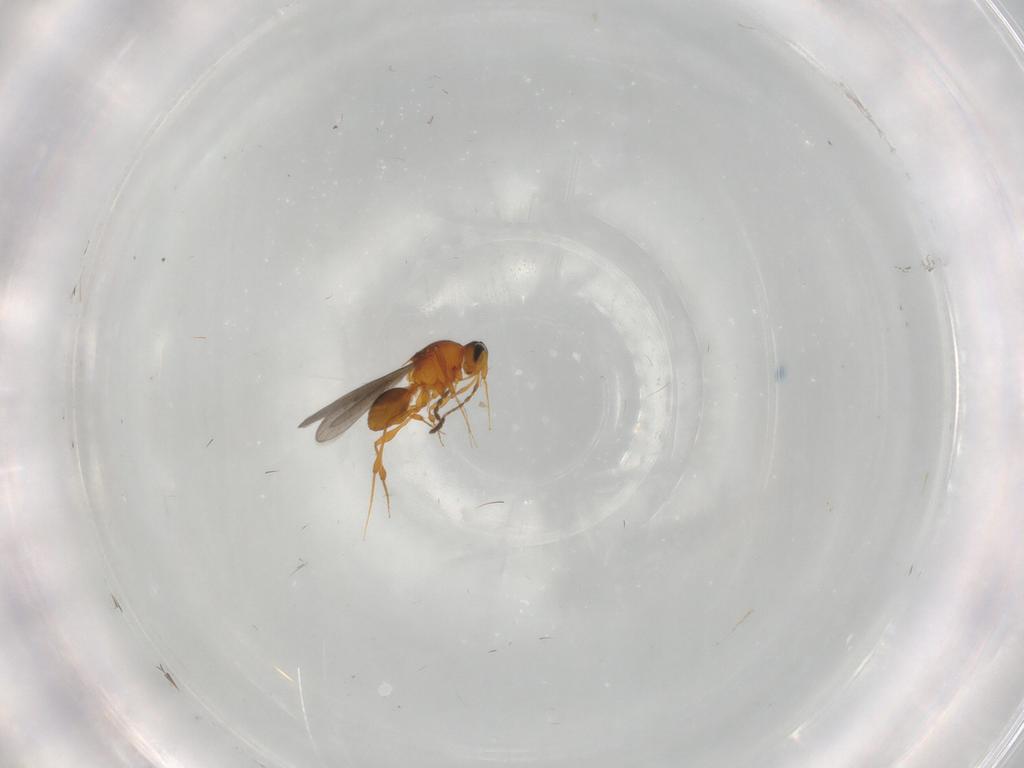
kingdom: Animalia
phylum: Arthropoda
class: Insecta
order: Hymenoptera
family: Platygastridae
